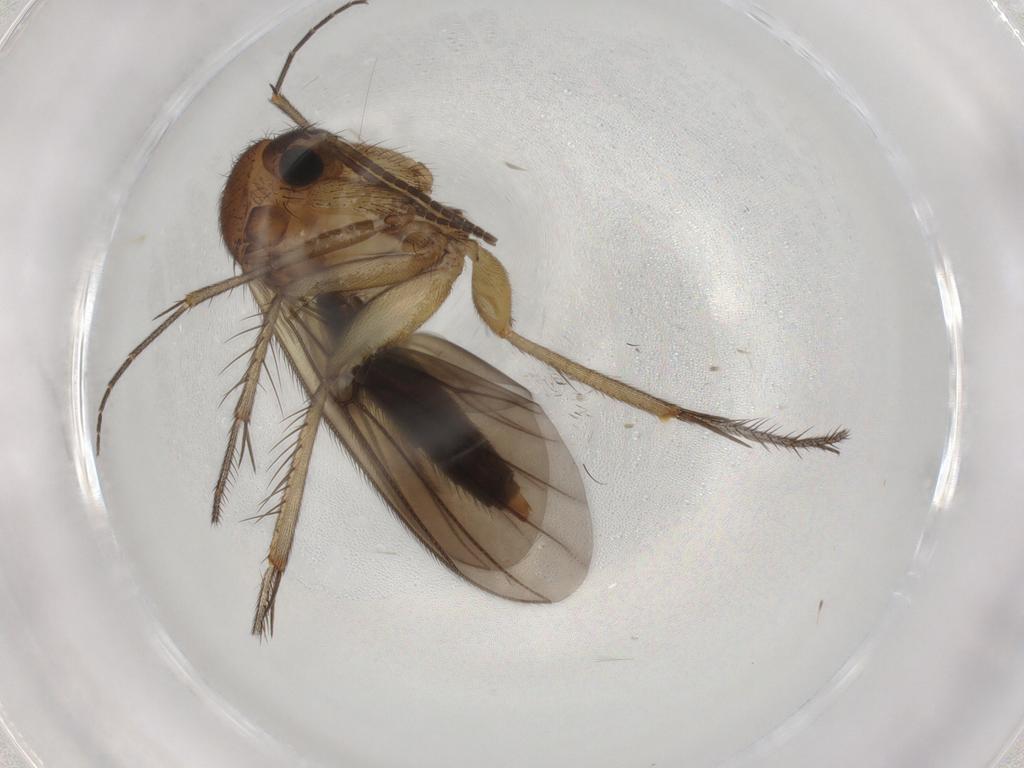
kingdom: Animalia
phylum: Arthropoda
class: Insecta
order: Diptera
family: Mycetophilidae
